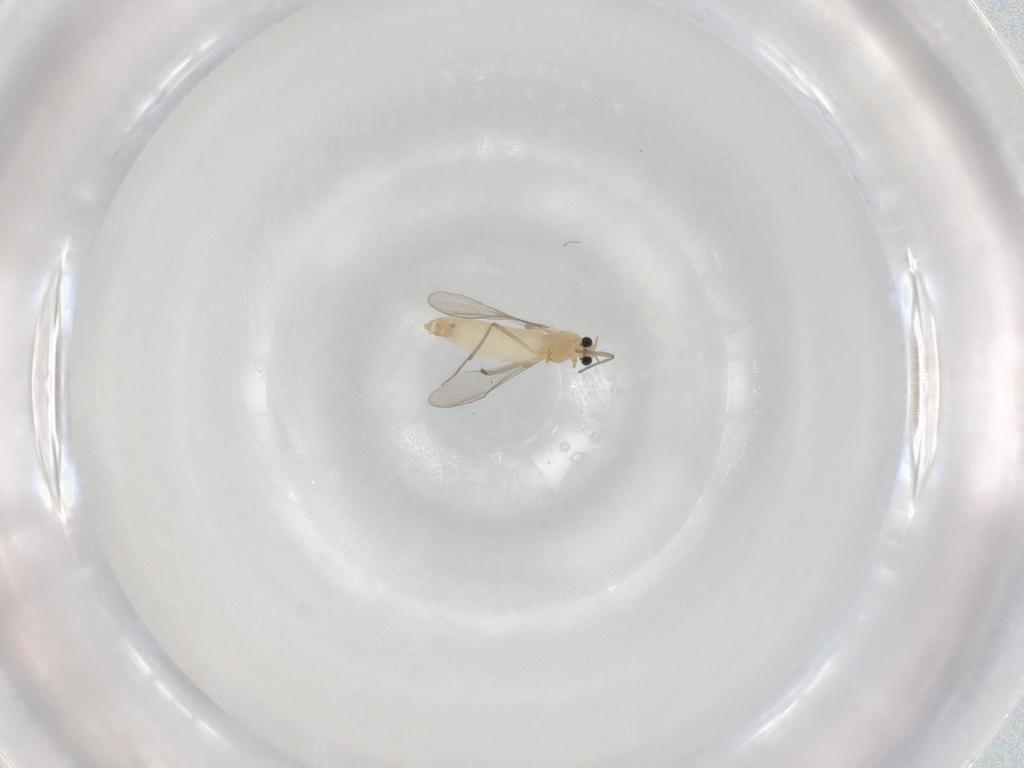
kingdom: Animalia
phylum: Arthropoda
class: Insecta
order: Diptera
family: Chironomidae
